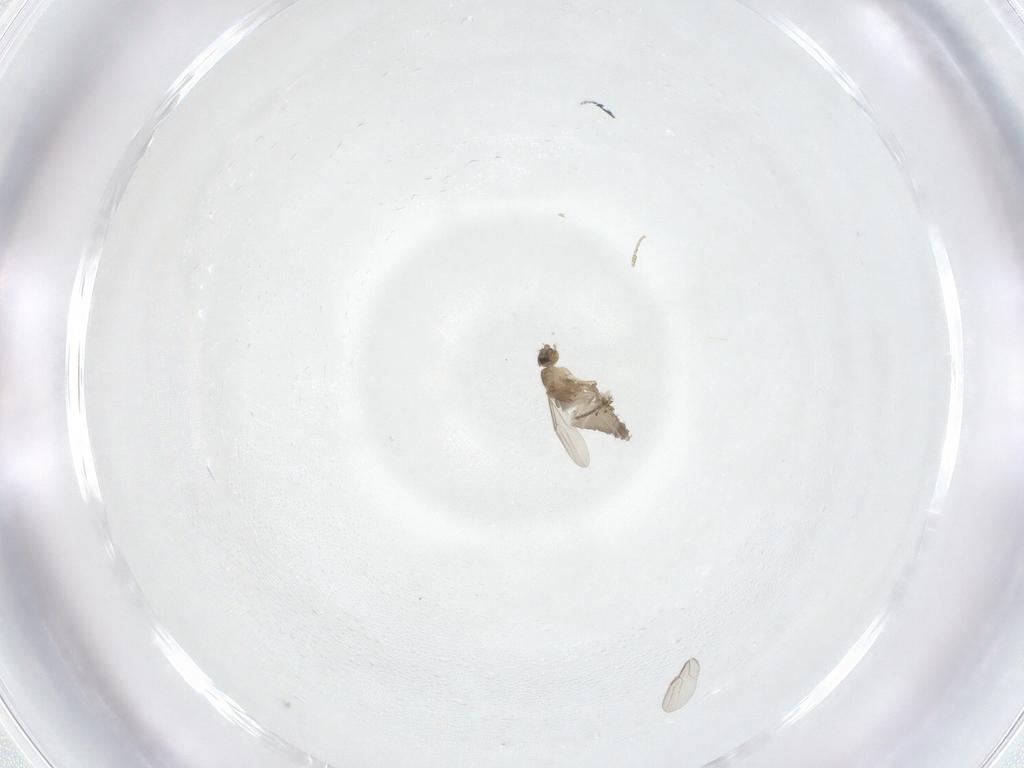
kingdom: Animalia
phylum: Arthropoda
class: Insecta
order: Diptera
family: Phoridae
